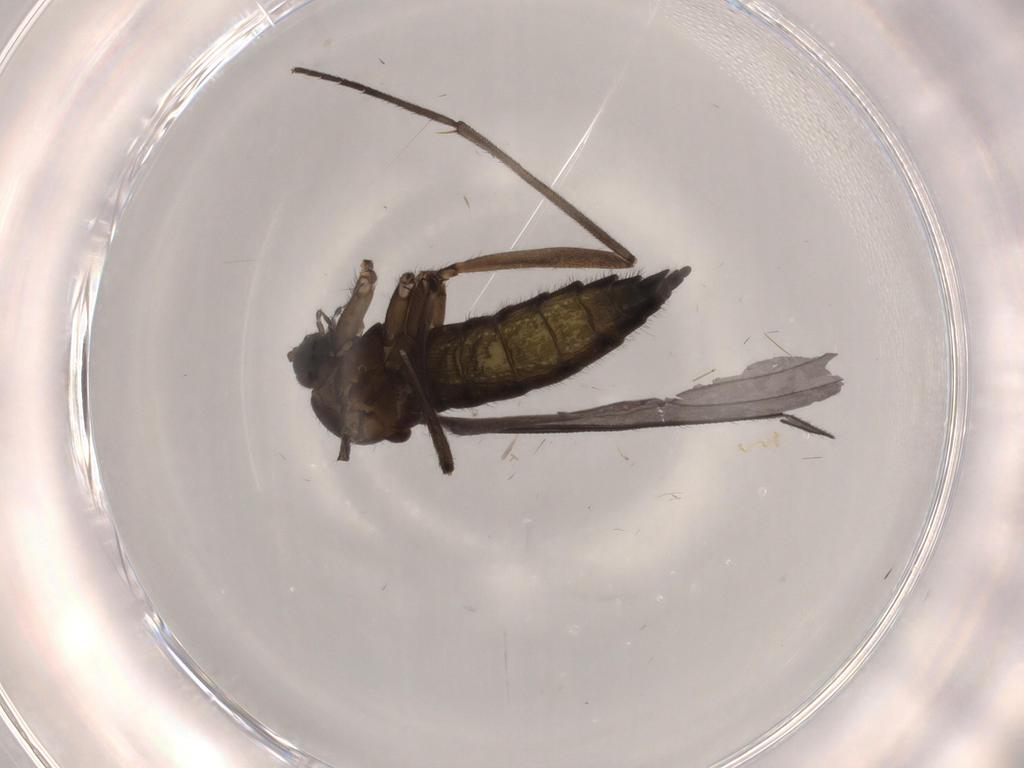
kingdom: Animalia
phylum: Arthropoda
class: Insecta
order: Diptera
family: Sciaridae
